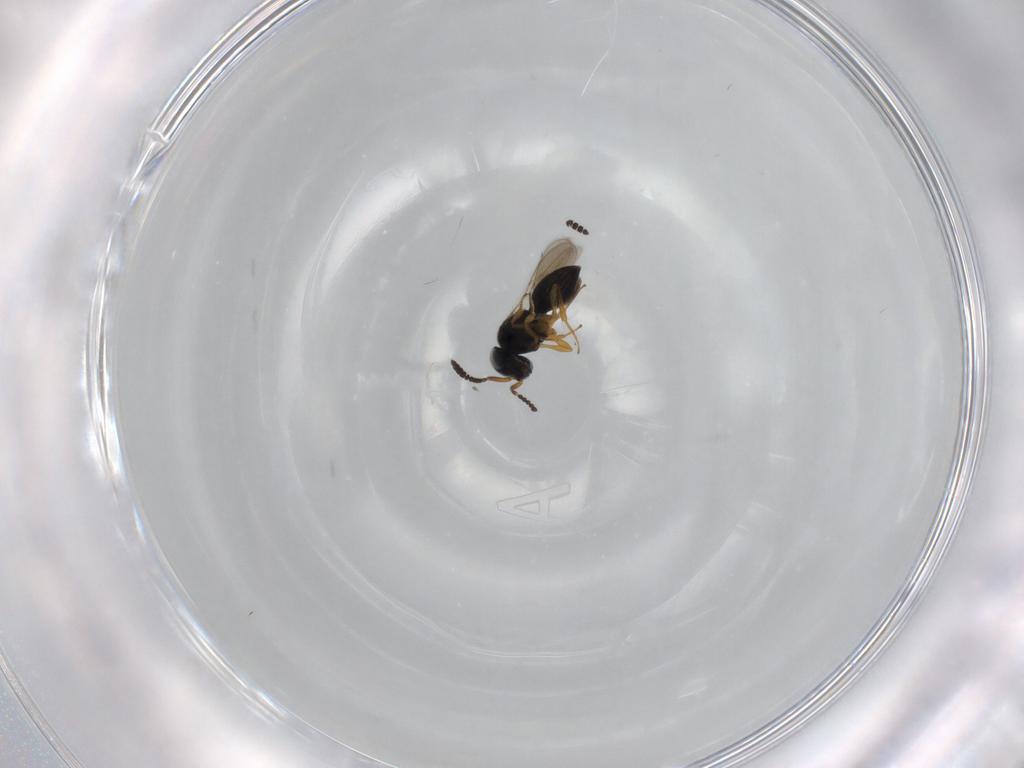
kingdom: Animalia
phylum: Arthropoda
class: Insecta
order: Hymenoptera
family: Scelionidae
